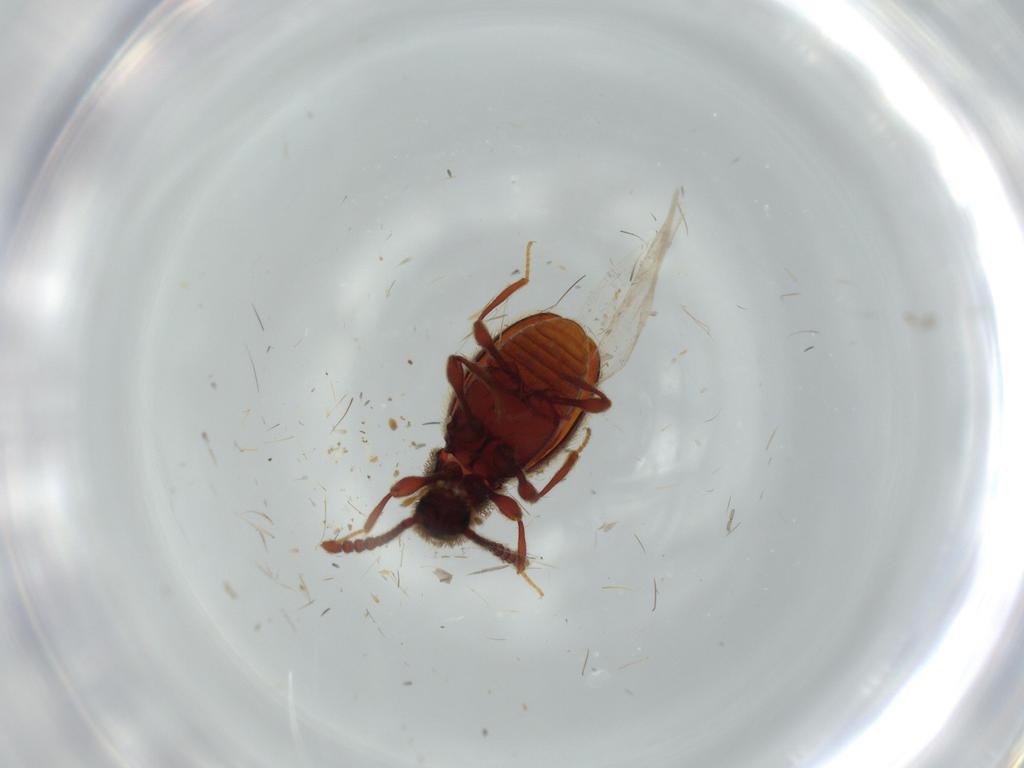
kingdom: Animalia
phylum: Arthropoda
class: Insecta
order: Coleoptera
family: Staphylinidae
